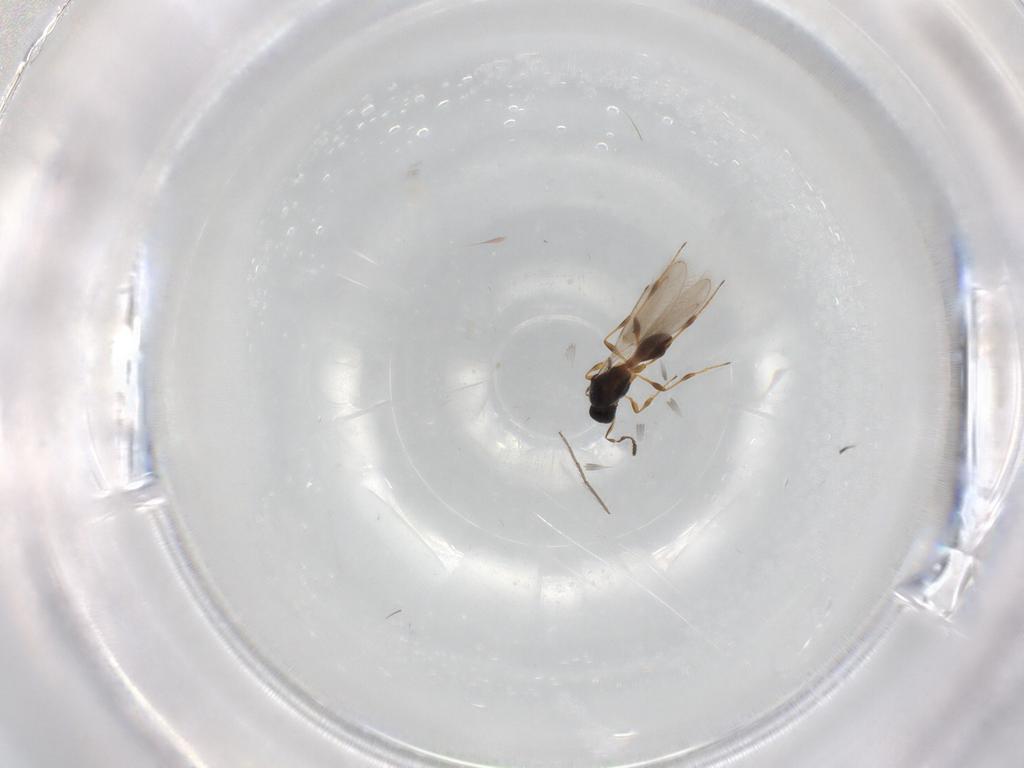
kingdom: Animalia
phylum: Arthropoda
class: Insecta
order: Hymenoptera
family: Platygastridae
